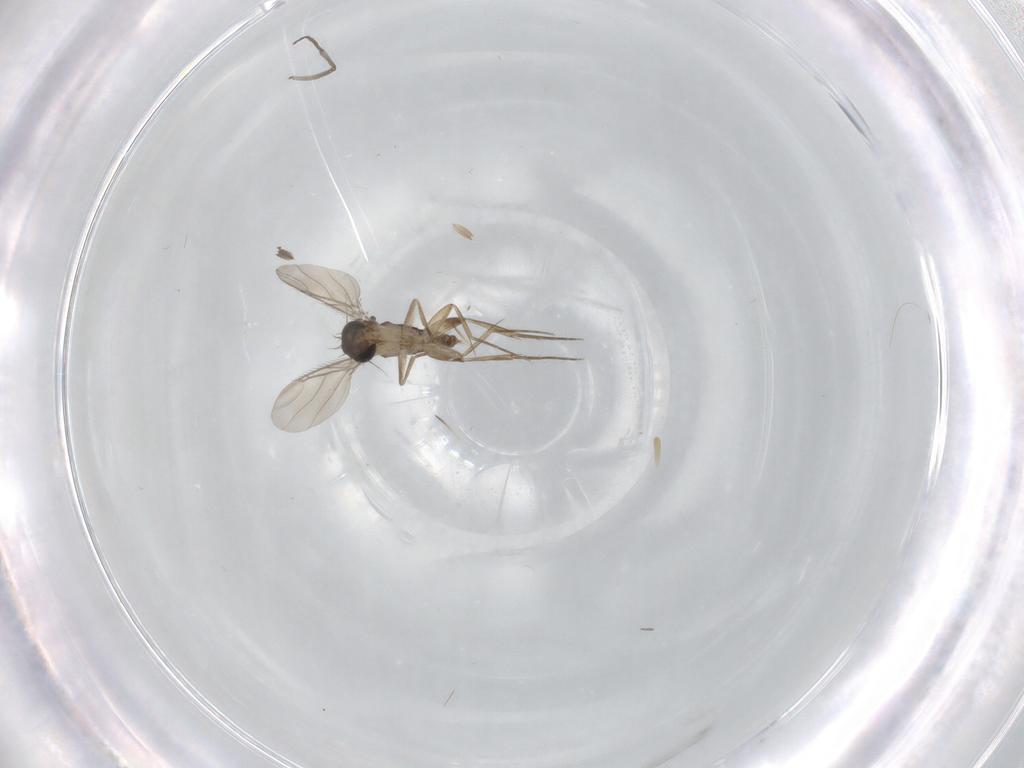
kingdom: Animalia
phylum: Arthropoda
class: Insecta
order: Diptera
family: Phoridae
